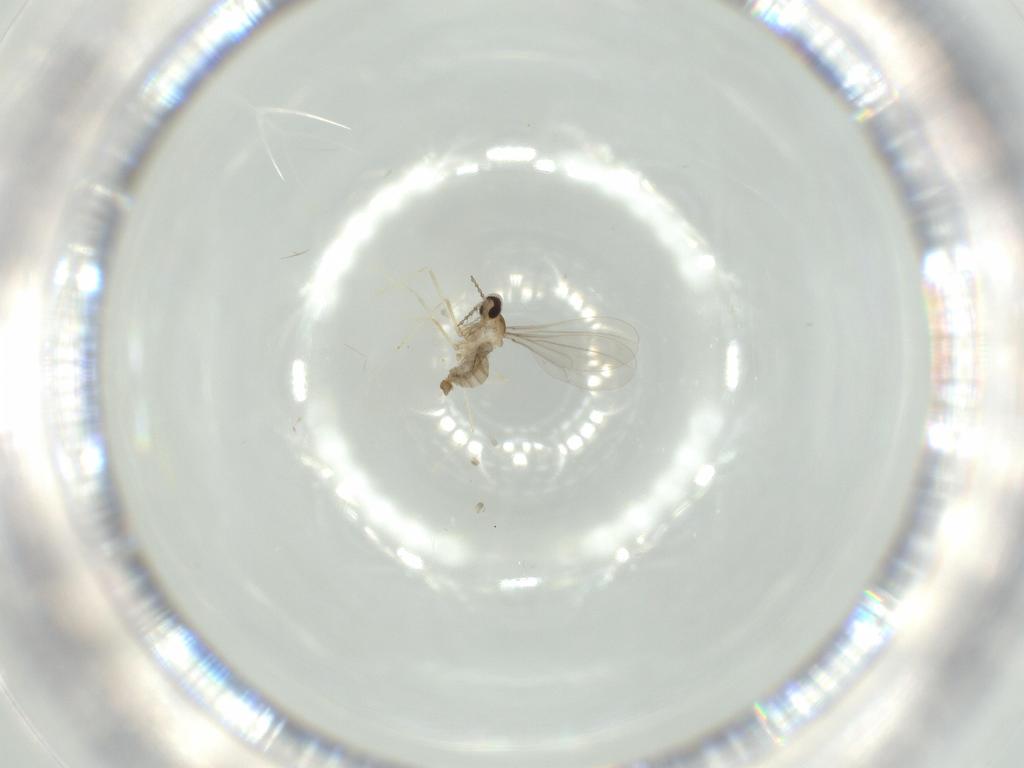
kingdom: Animalia
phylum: Arthropoda
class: Insecta
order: Diptera
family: Cecidomyiidae
